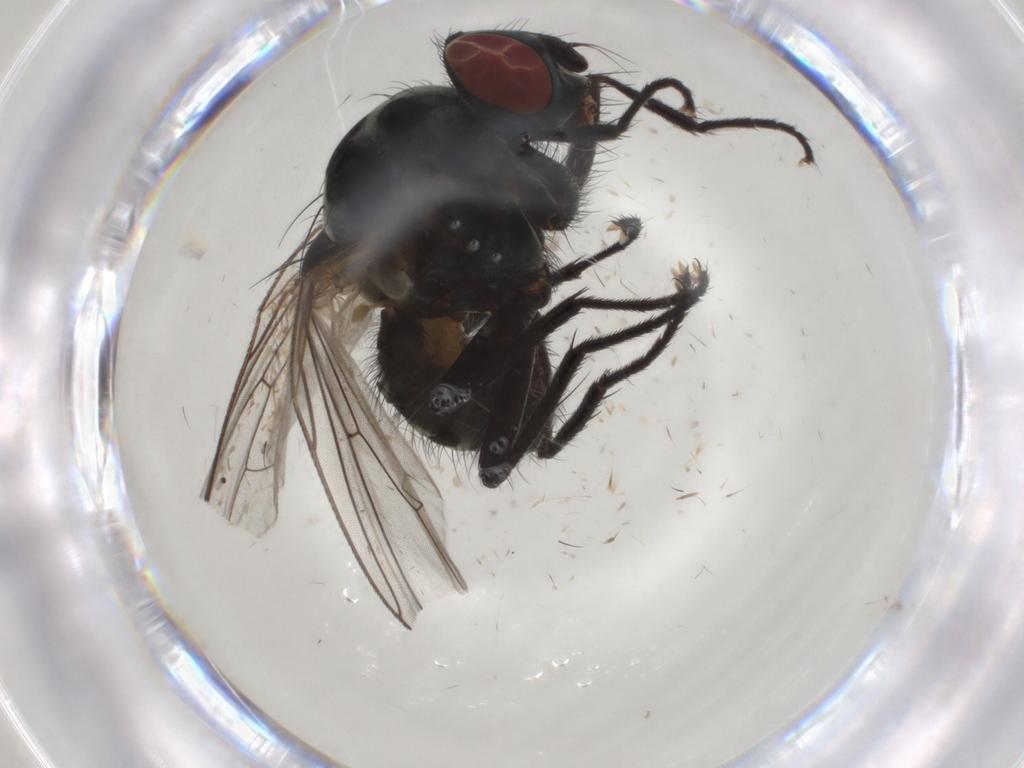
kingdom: Animalia
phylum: Arthropoda
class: Insecta
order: Diptera
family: Anthomyiidae
